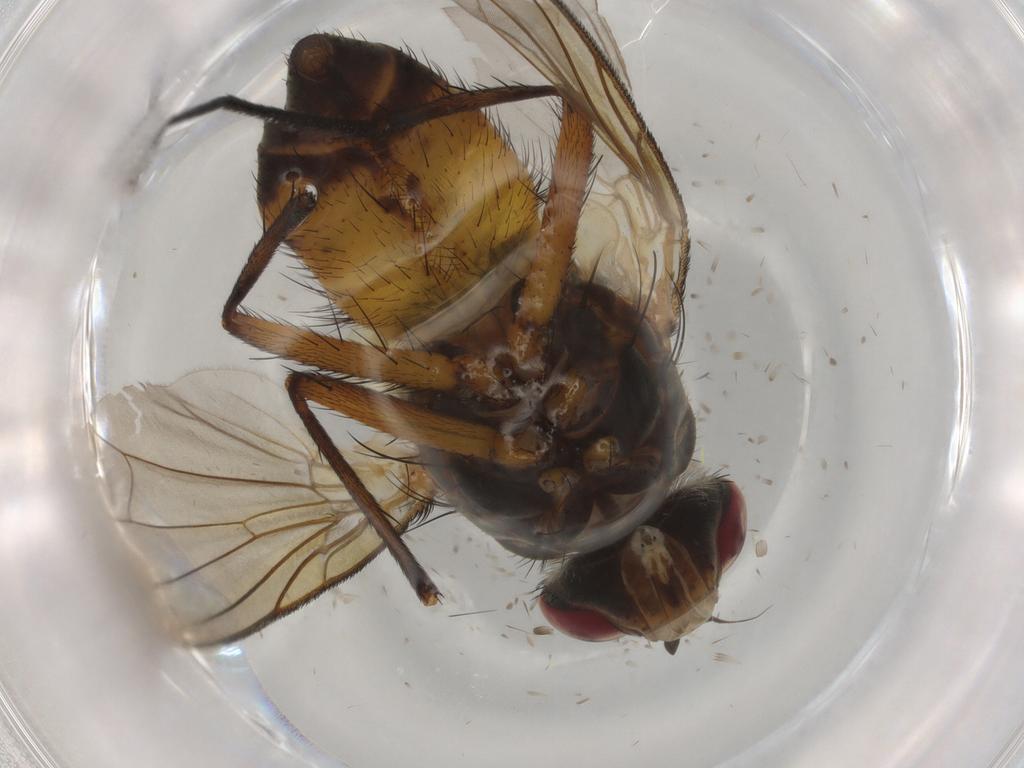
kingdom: Animalia
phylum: Arthropoda
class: Insecta
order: Diptera
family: Tachinidae
